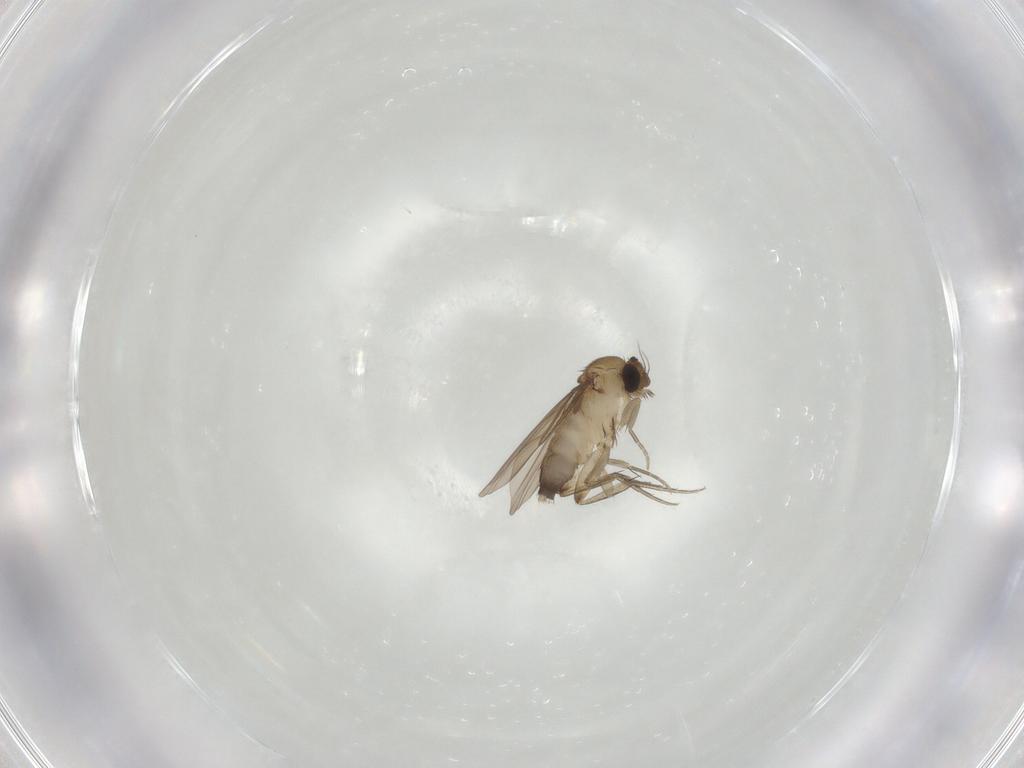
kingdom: Animalia
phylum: Arthropoda
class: Insecta
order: Diptera
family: Phoridae
